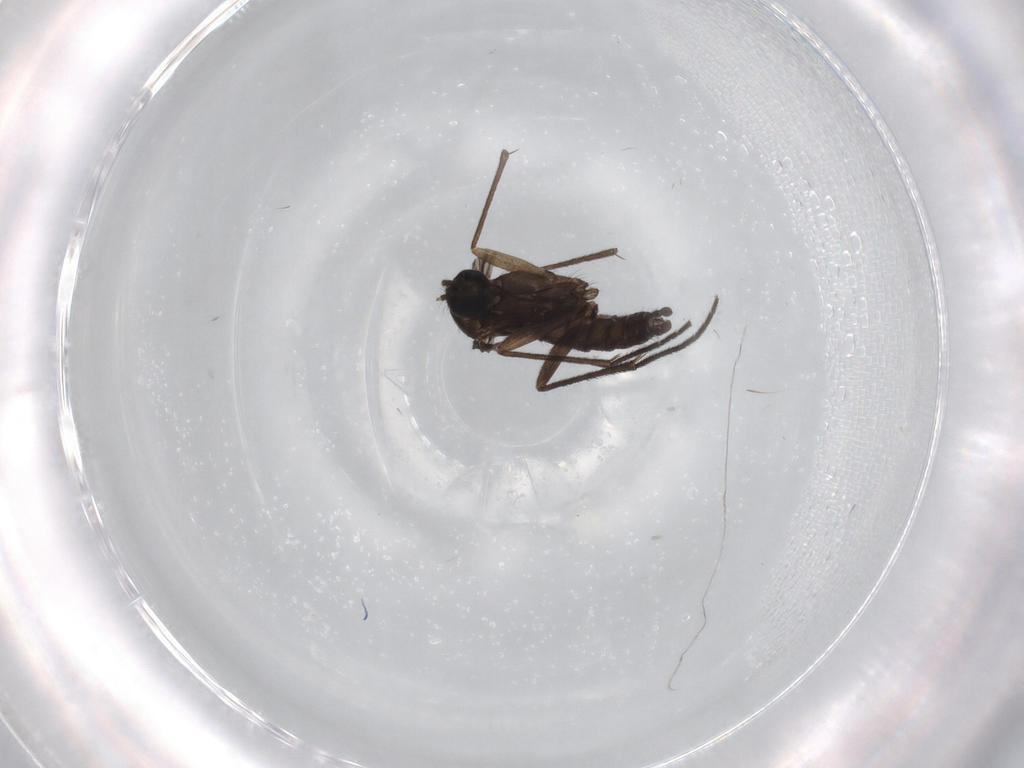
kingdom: Animalia
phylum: Arthropoda
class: Insecta
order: Diptera
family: Sciaridae
